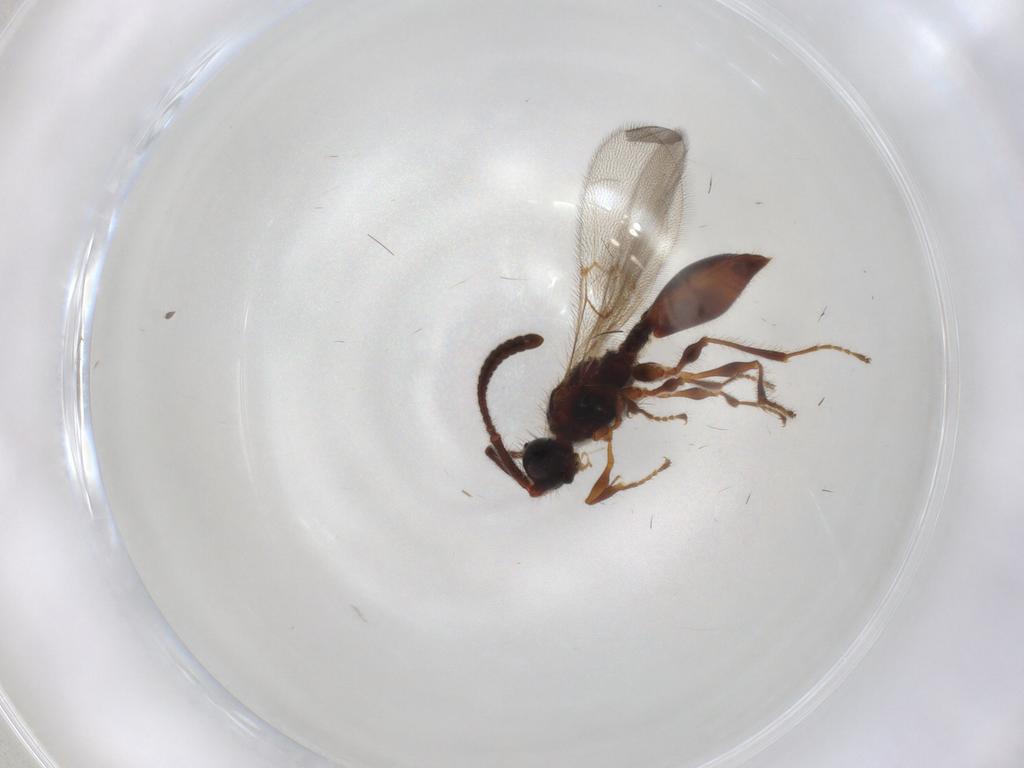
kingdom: Animalia
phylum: Arthropoda
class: Insecta
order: Hymenoptera
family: Diapriidae
